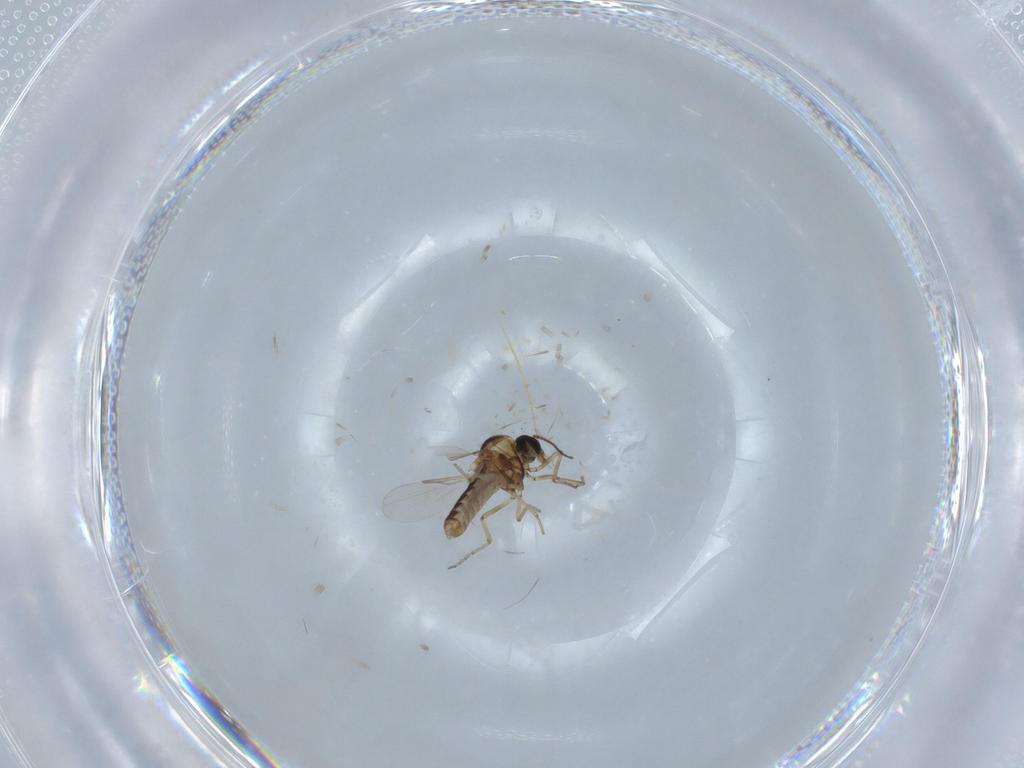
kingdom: Animalia
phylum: Arthropoda
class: Insecta
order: Diptera
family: Ceratopogonidae
